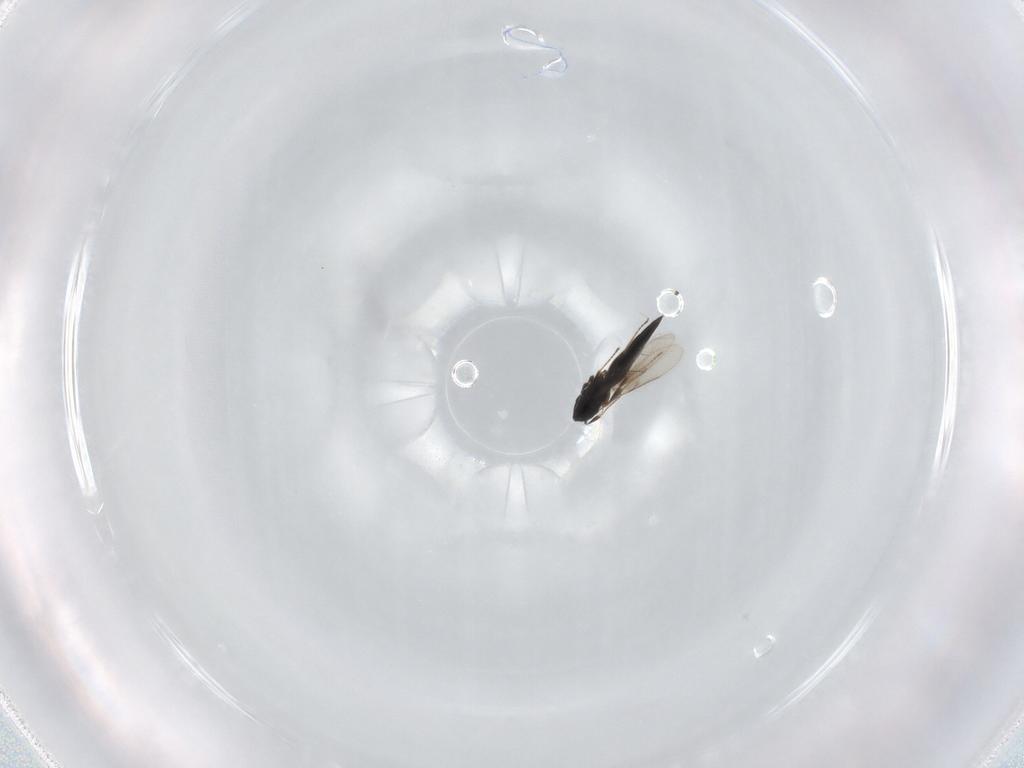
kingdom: Animalia
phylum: Arthropoda
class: Insecta
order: Hymenoptera
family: Scelionidae
